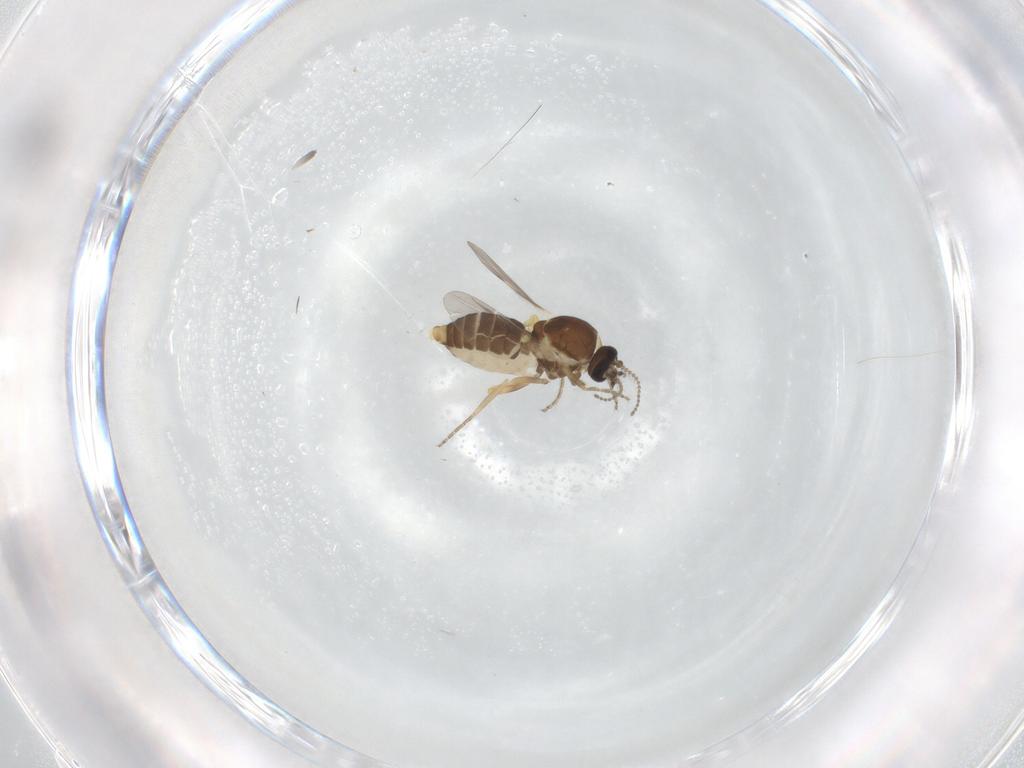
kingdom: Animalia
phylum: Arthropoda
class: Insecta
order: Diptera
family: Ceratopogonidae
